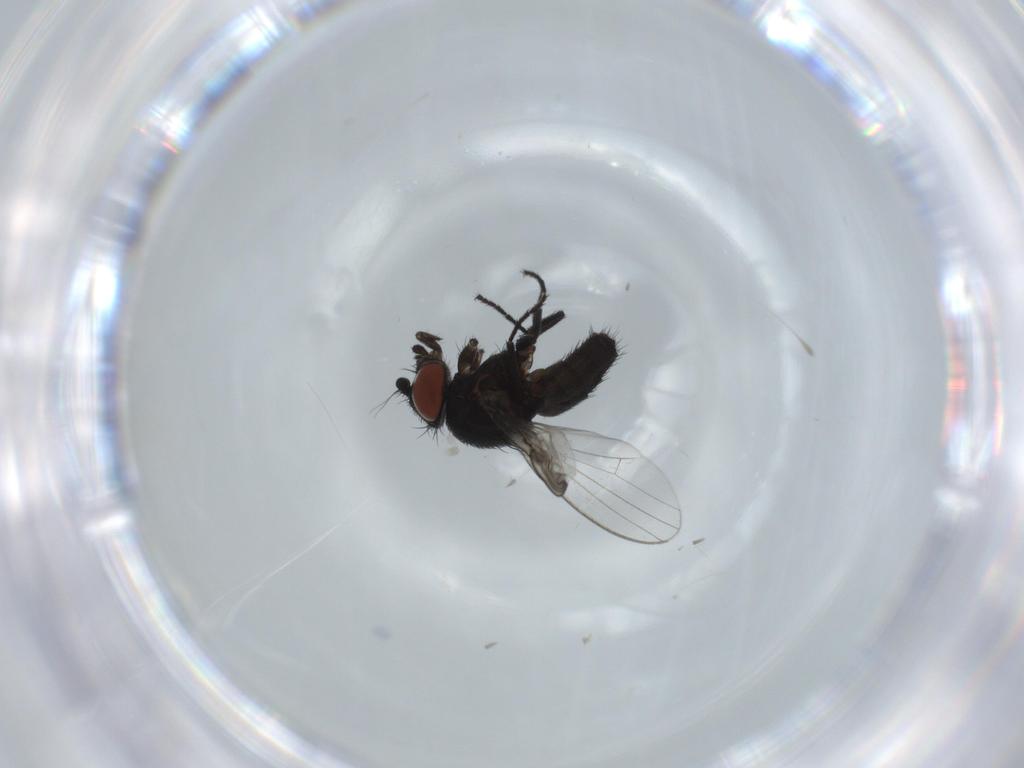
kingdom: Animalia
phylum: Arthropoda
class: Insecta
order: Diptera
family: Milichiidae
